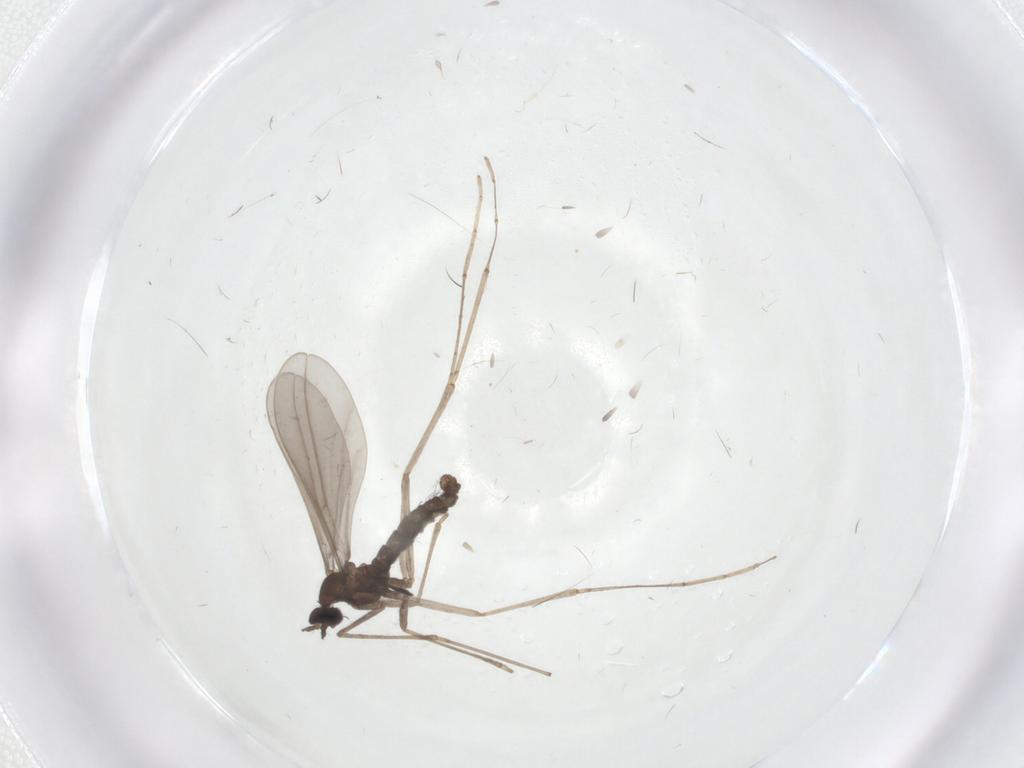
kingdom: Animalia
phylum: Arthropoda
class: Insecta
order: Diptera
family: Cecidomyiidae
